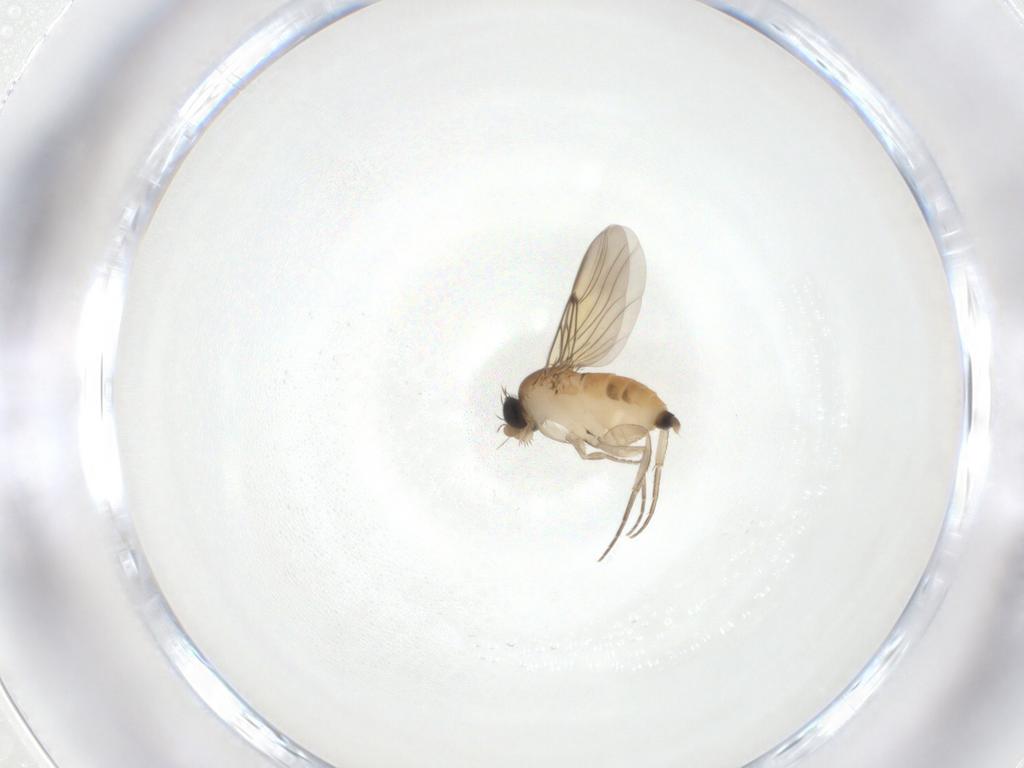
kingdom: Animalia
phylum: Arthropoda
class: Insecta
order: Diptera
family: Phoridae
